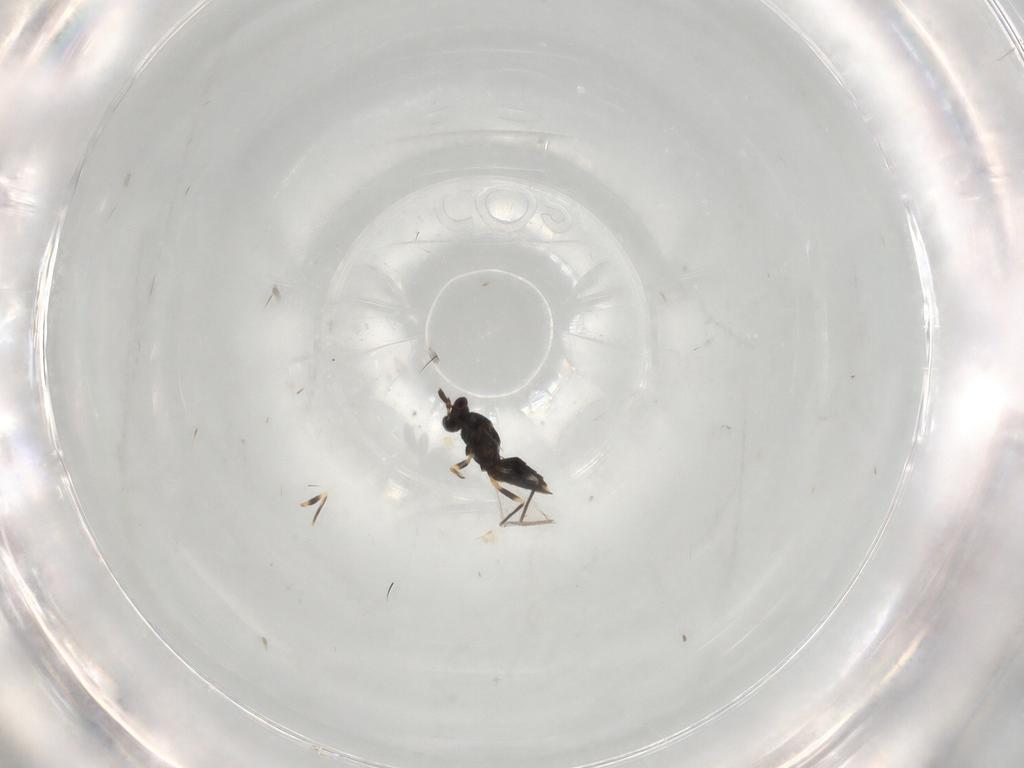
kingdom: Animalia
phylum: Arthropoda
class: Insecta
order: Hymenoptera
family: Mymaridae
